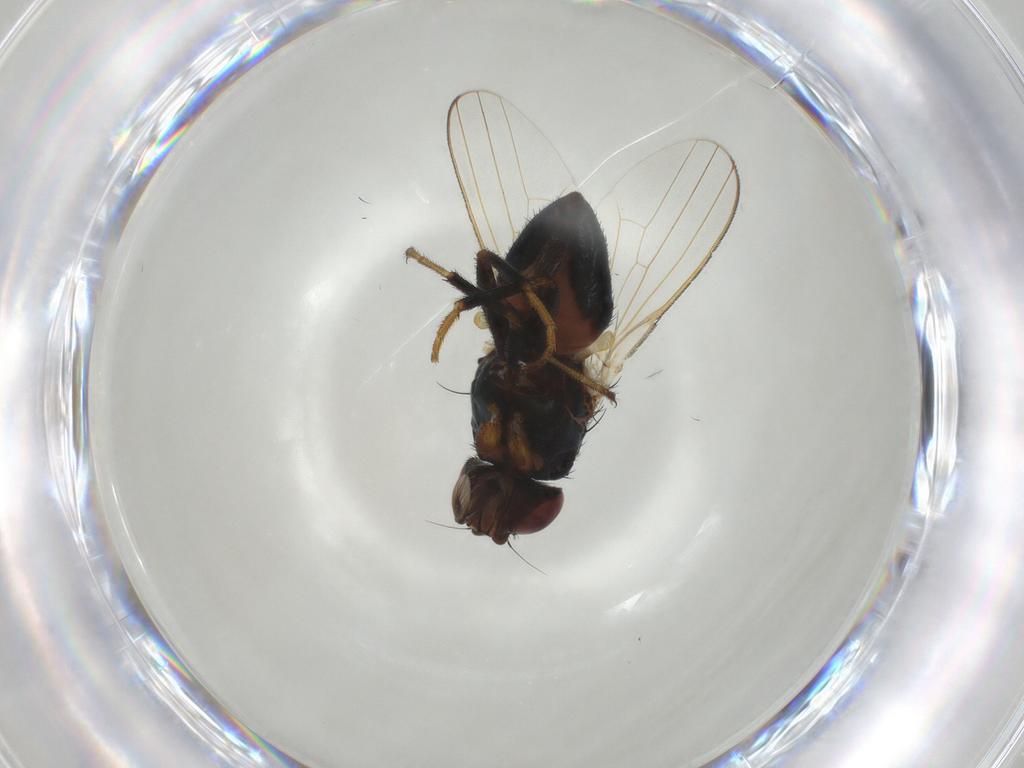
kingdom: Animalia
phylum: Arthropoda
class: Insecta
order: Diptera
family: Milichiidae
